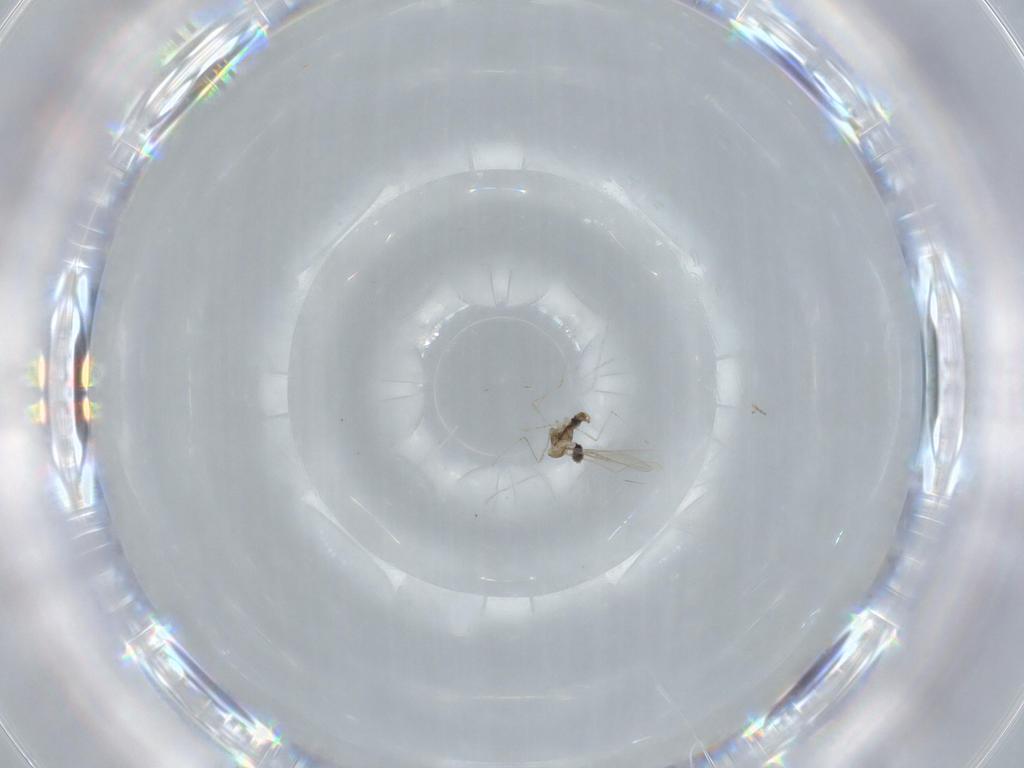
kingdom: Animalia
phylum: Arthropoda
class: Insecta
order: Diptera
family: Cecidomyiidae
